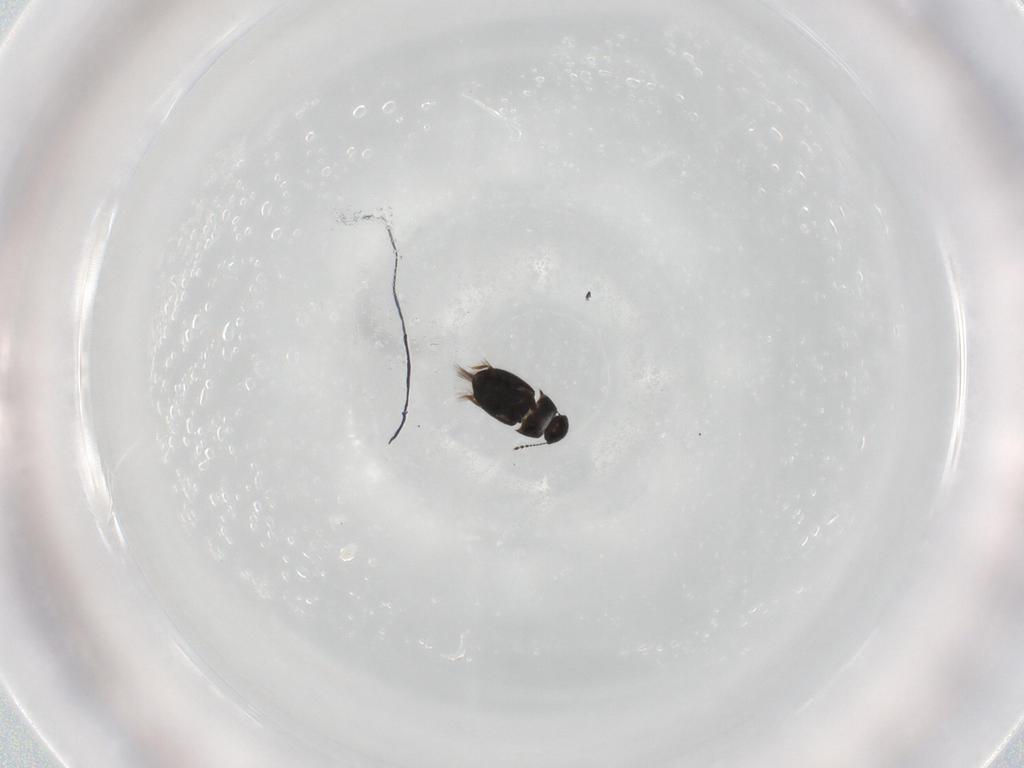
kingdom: Animalia
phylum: Arthropoda
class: Insecta
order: Coleoptera
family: Ptiliidae
